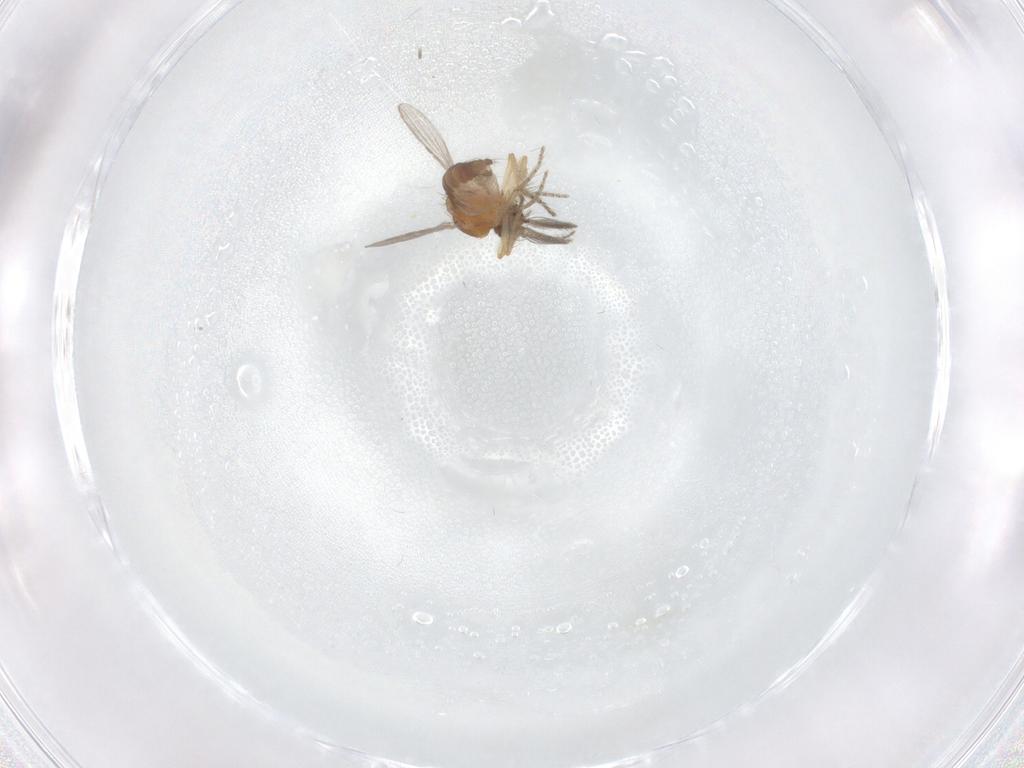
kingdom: Animalia
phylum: Arthropoda
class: Insecta
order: Diptera
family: Ceratopogonidae
